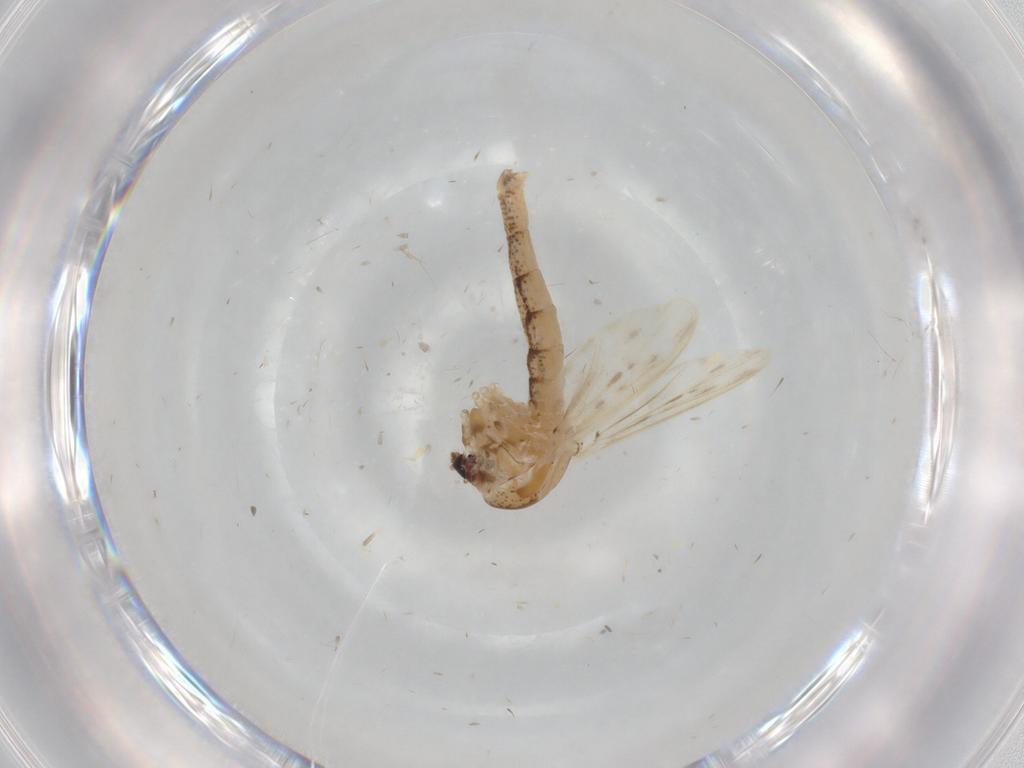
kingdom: Animalia
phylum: Arthropoda
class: Insecta
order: Diptera
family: Chaoboridae
